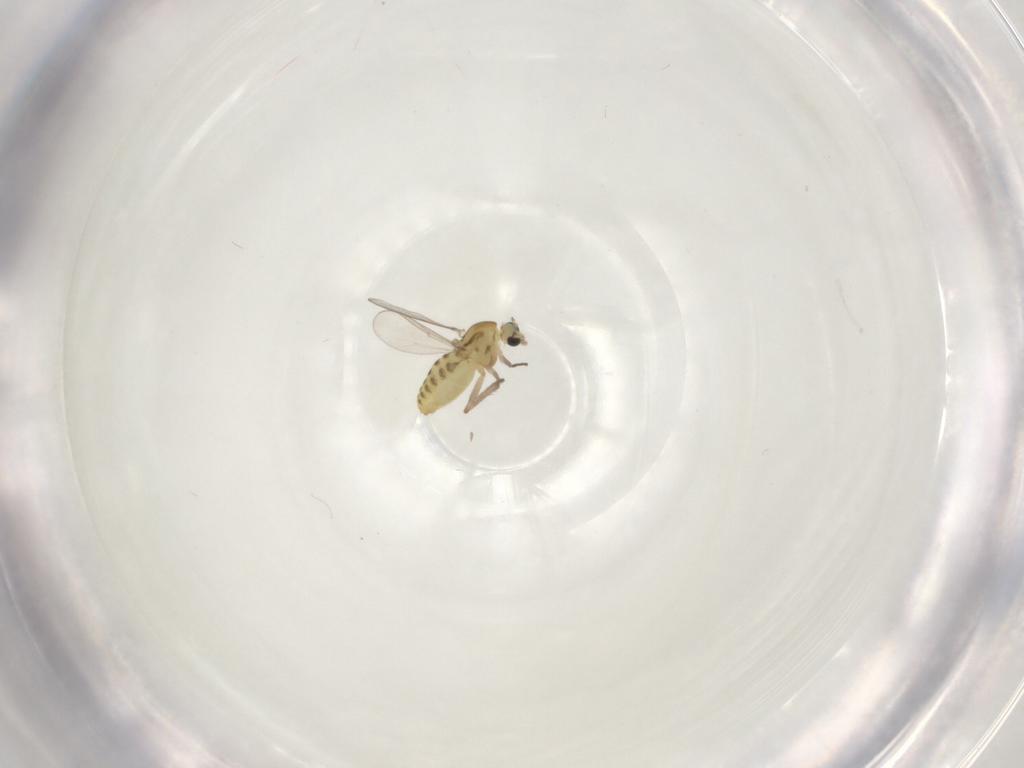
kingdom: Animalia
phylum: Arthropoda
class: Insecta
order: Diptera
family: Chironomidae
